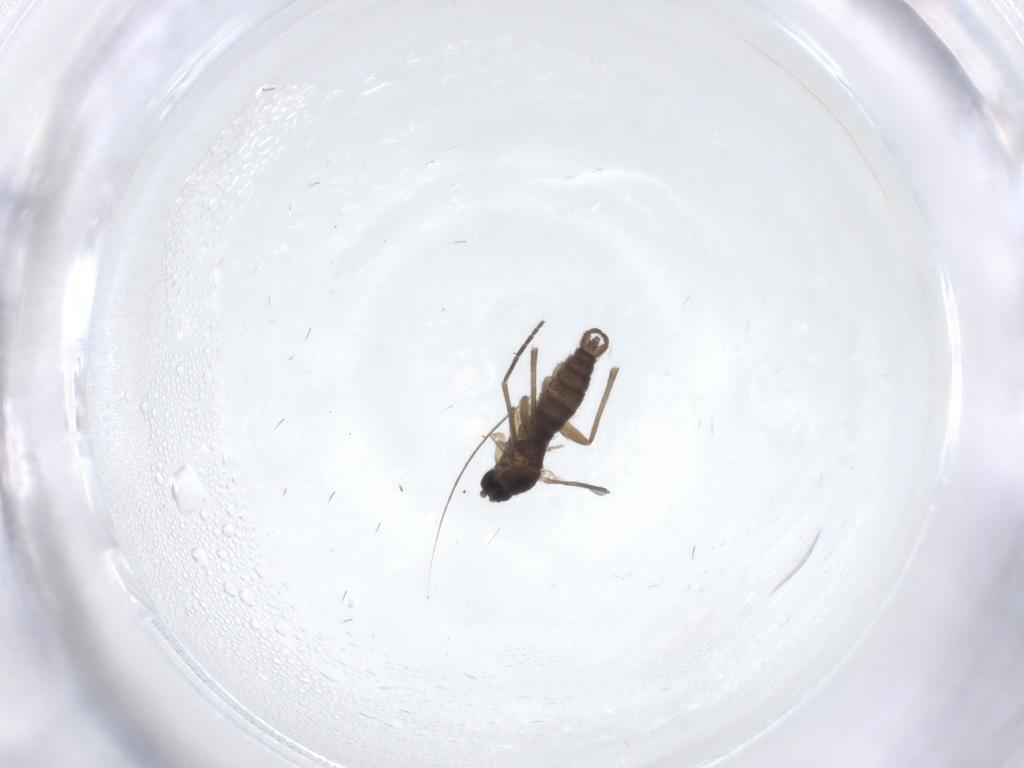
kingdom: Animalia
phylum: Arthropoda
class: Insecta
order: Diptera
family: Sciaridae
